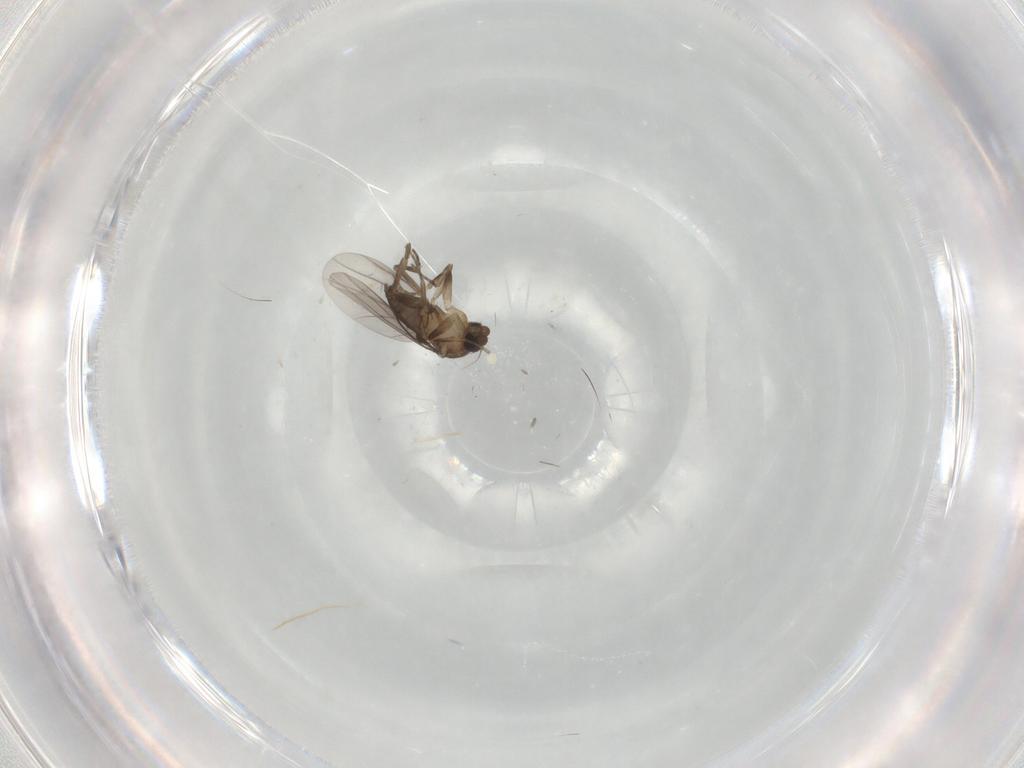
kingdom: Animalia
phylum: Arthropoda
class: Insecta
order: Diptera
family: Phoridae
